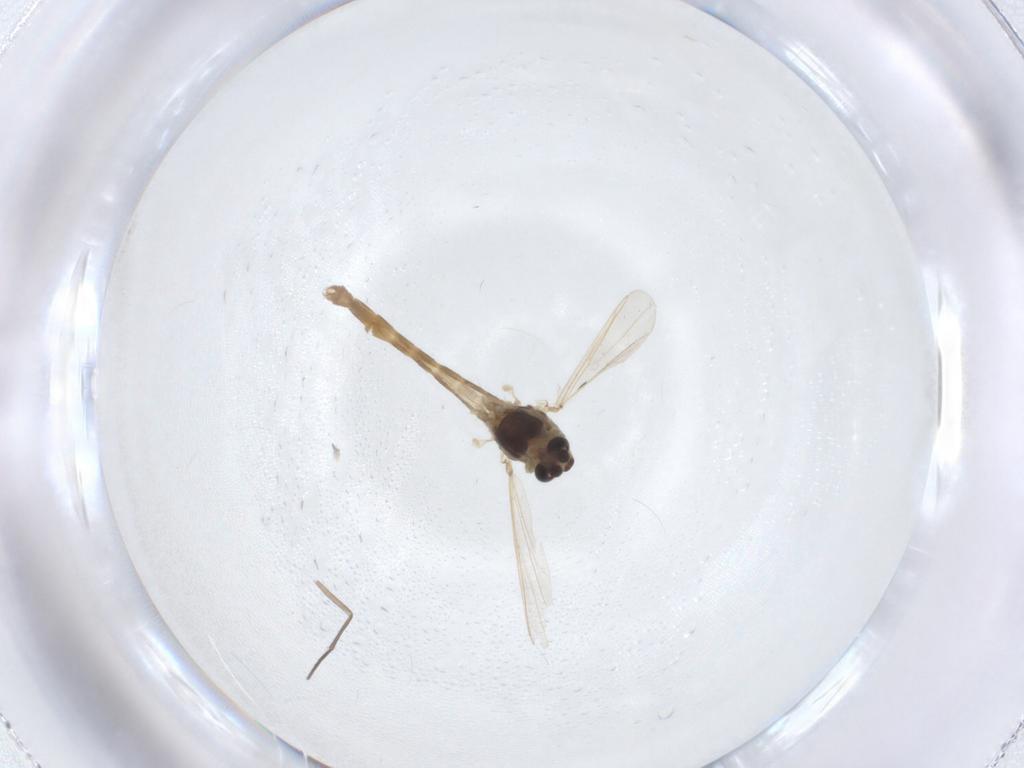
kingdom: Animalia
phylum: Arthropoda
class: Insecta
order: Diptera
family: Chironomidae
